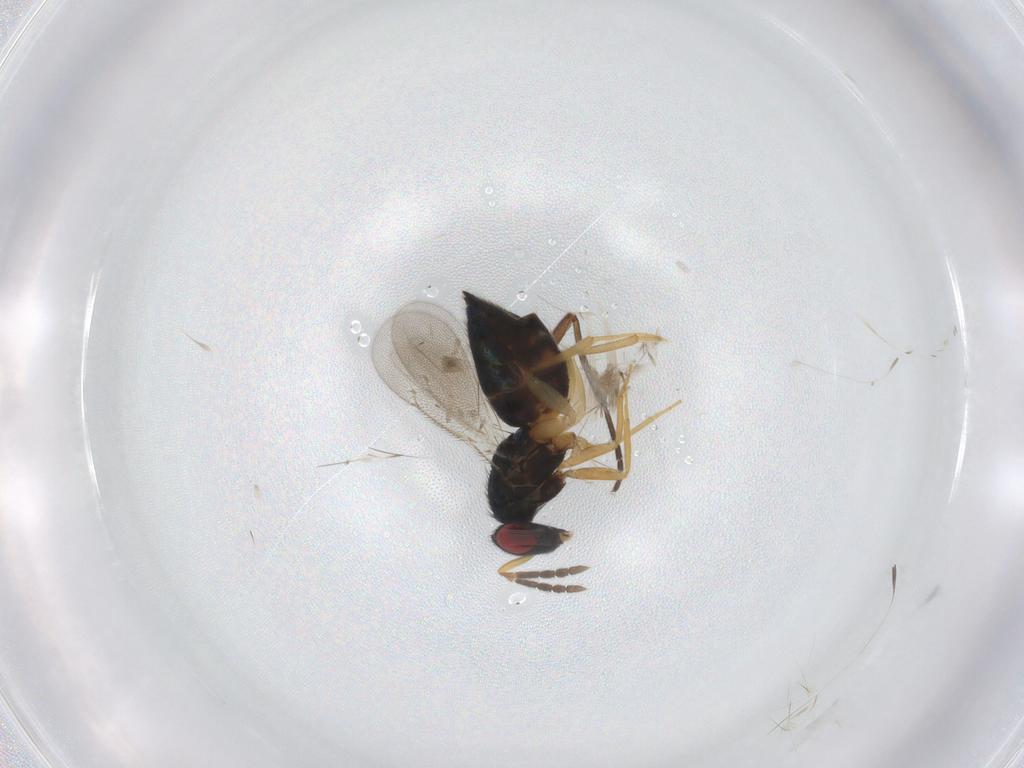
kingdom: Animalia
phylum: Arthropoda
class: Insecta
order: Hymenoptera
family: Eulophidae
